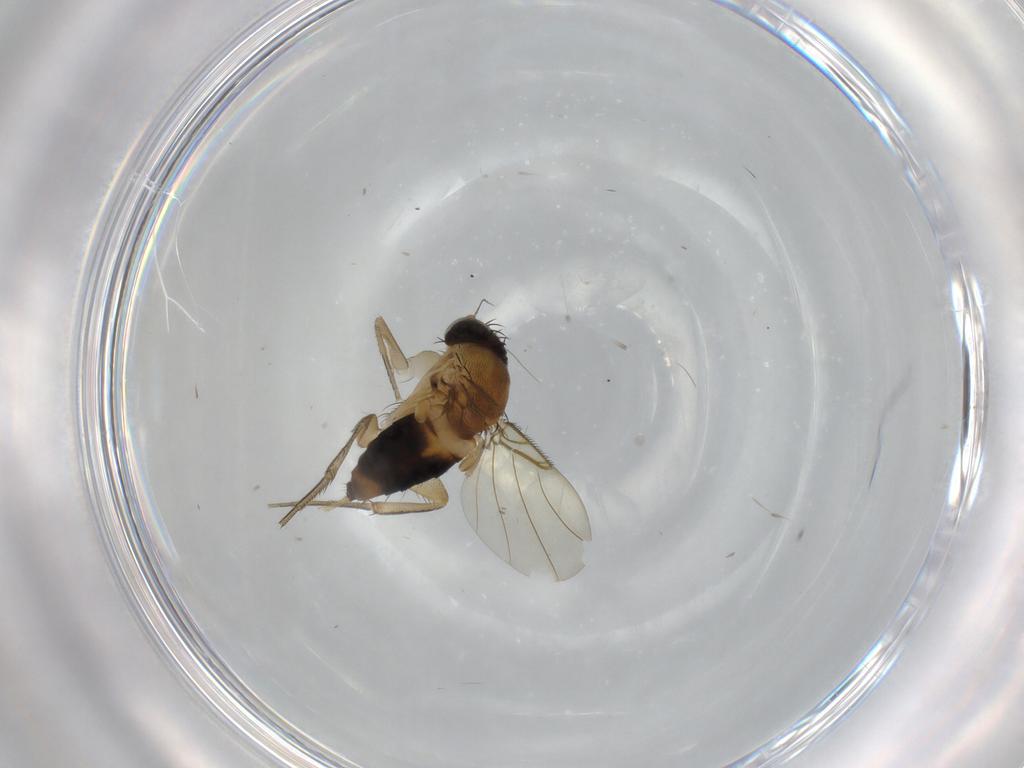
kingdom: Animalia
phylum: Arthropoda
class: Insecta
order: Diptera
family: Phoridae
